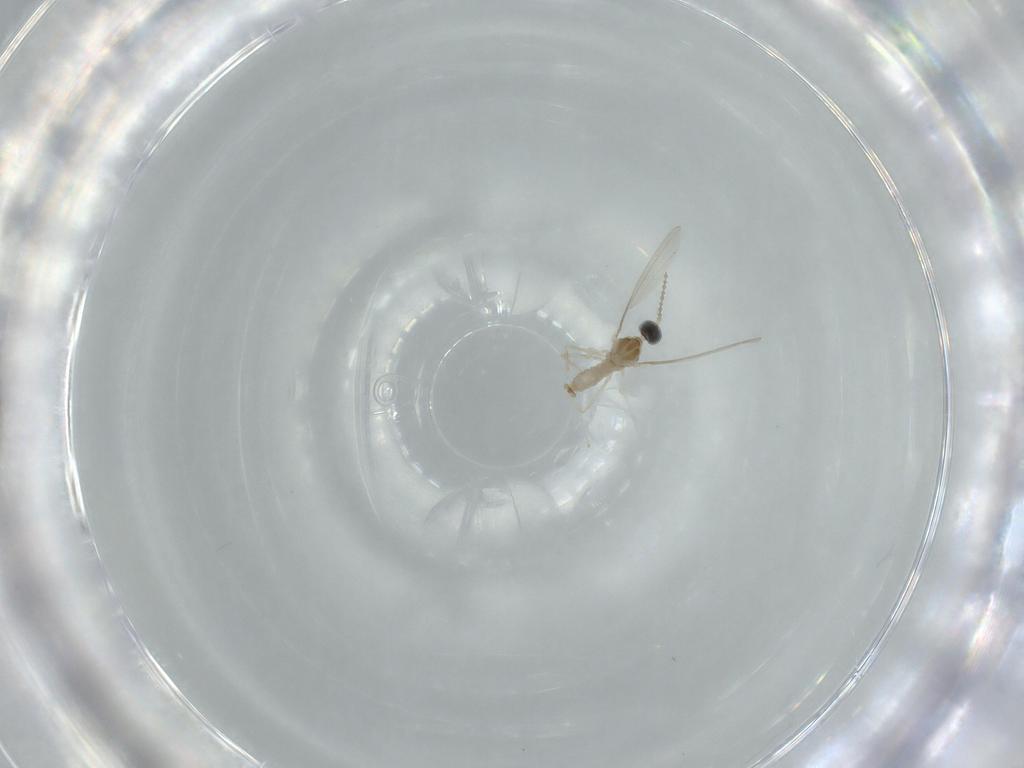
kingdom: Animalia
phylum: Arthropoda
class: Insecta
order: Diptera
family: Cecidomyiidae
